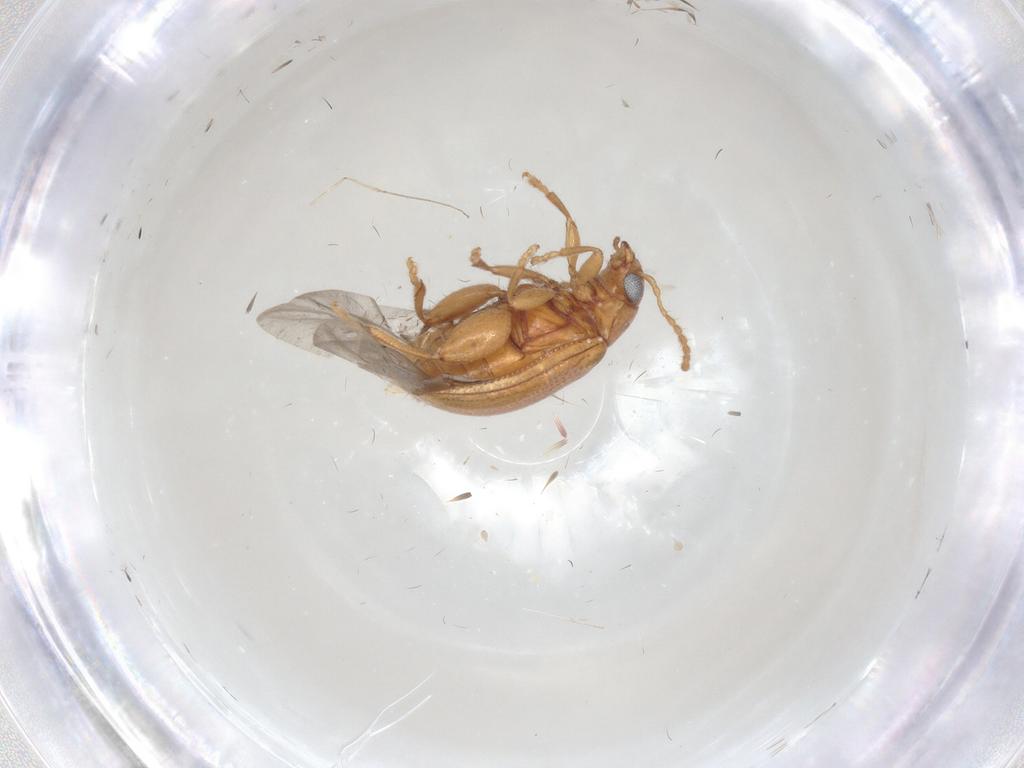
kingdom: Animalia
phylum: Arthropoda
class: Insecta
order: Coleoptera
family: Chrysomelidae
